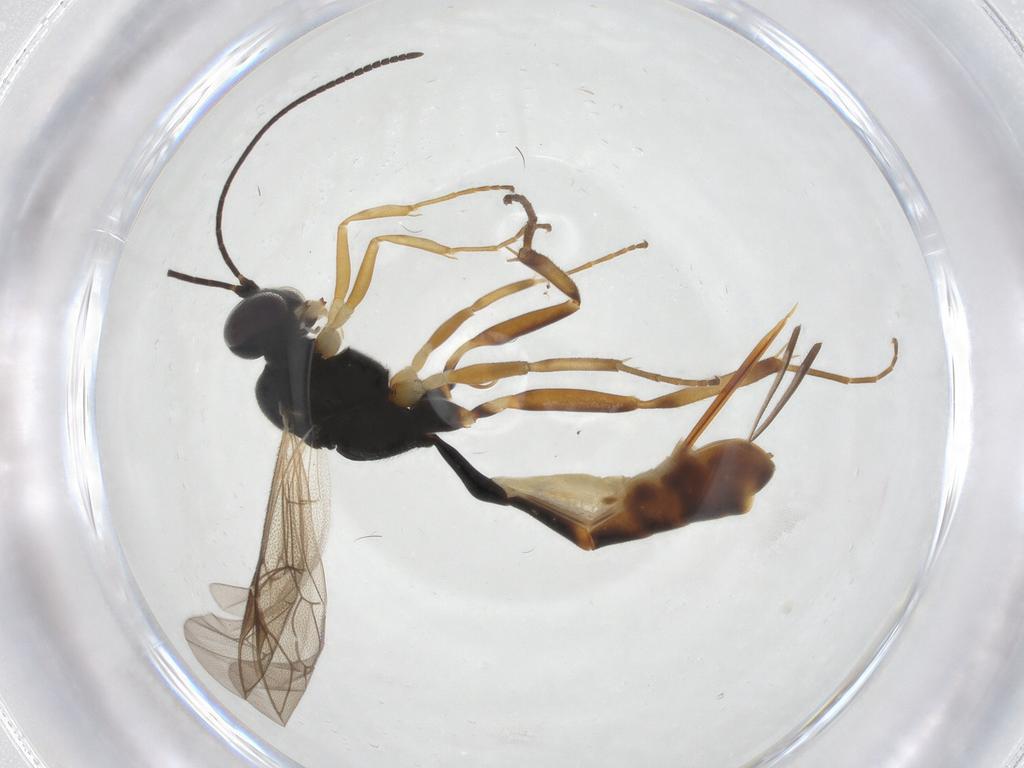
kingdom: Animalia
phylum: Arthropoda
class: Insecta
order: Hymenoptera
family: Ichneumonidae
